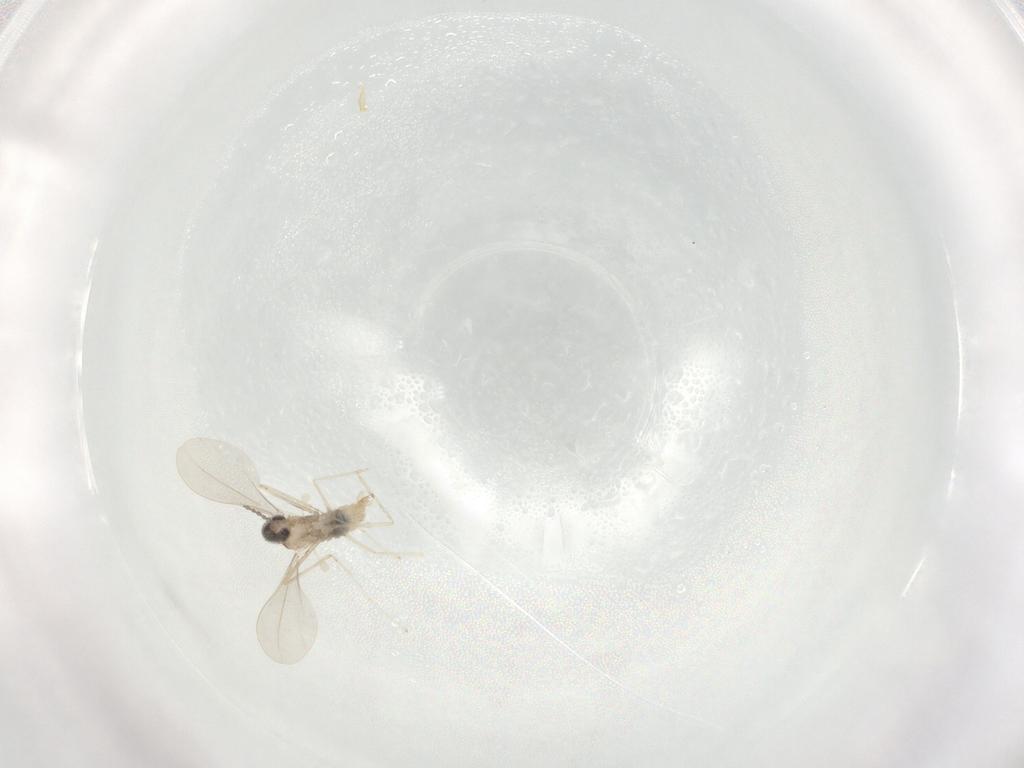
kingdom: Animalia
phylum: Arthropoda
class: Insecta
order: Diptera
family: Cecidomyiidae
